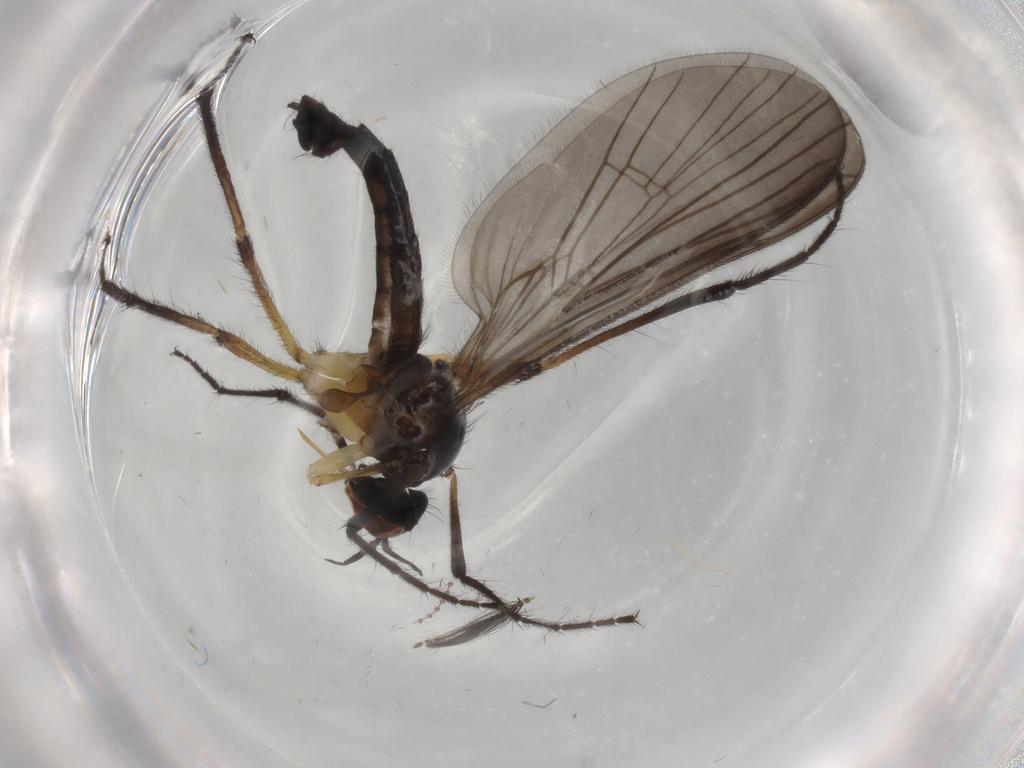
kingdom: Animalia
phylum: Arthropoda
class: Insecta
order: Diptera
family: Empididae
